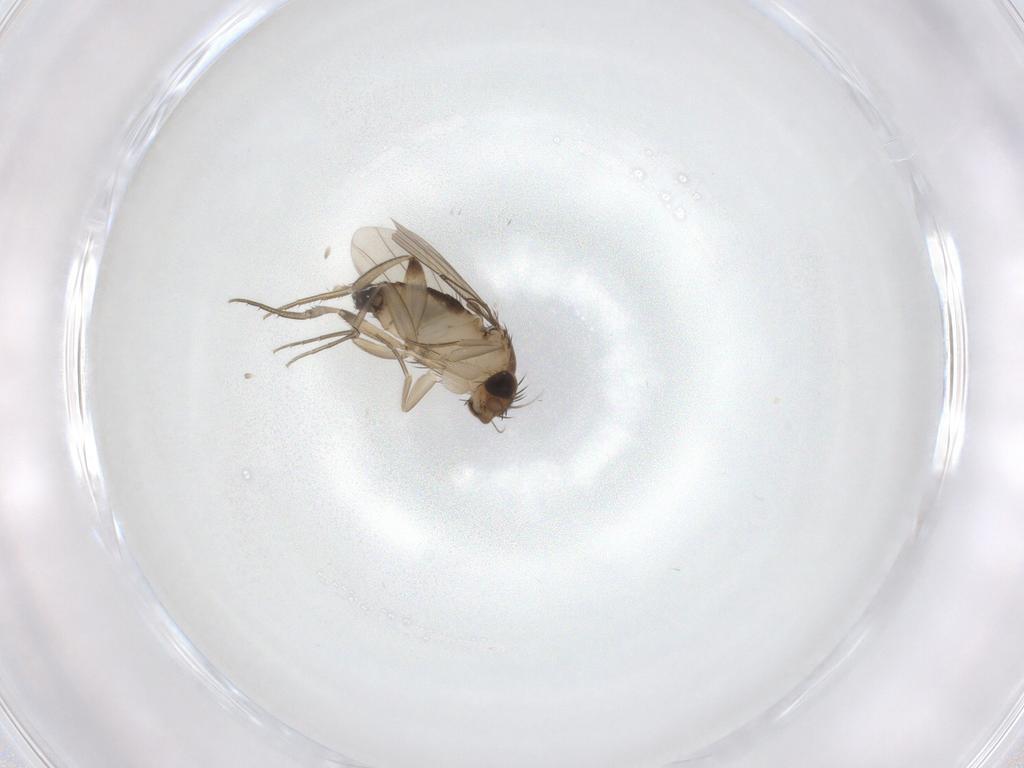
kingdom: Animalia
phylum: Arthropoda
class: Insecta
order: Diptera
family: Phoridae
